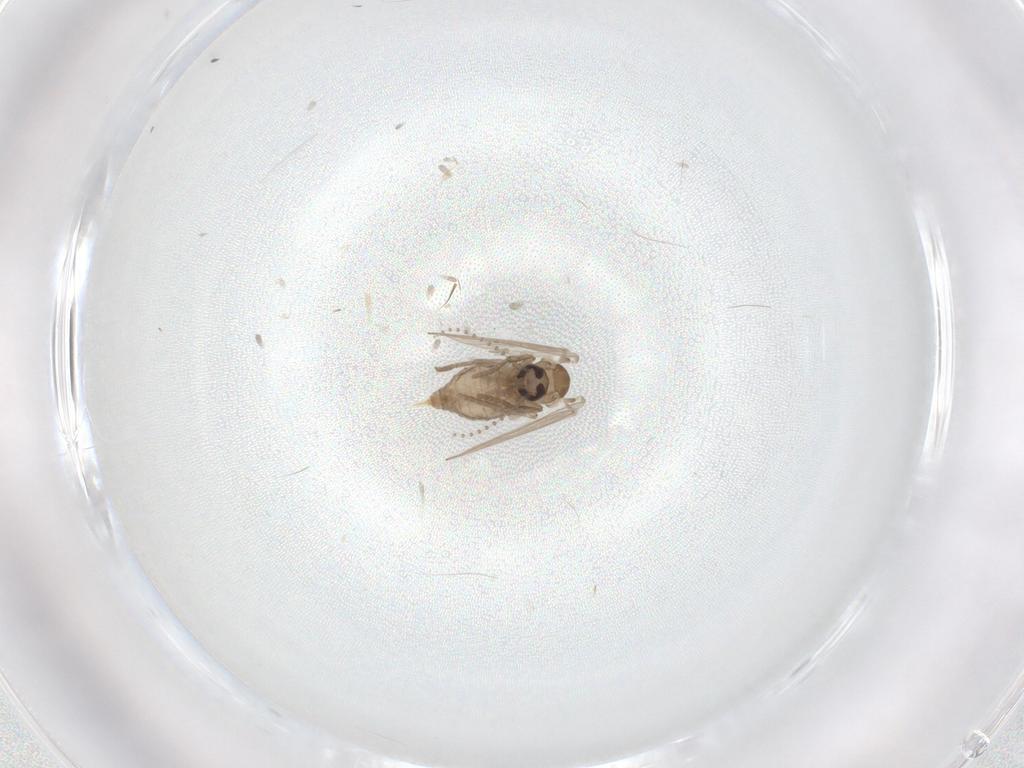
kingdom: Animalia
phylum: Arthropoda
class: Insecta
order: Diptera
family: Psychodidae
